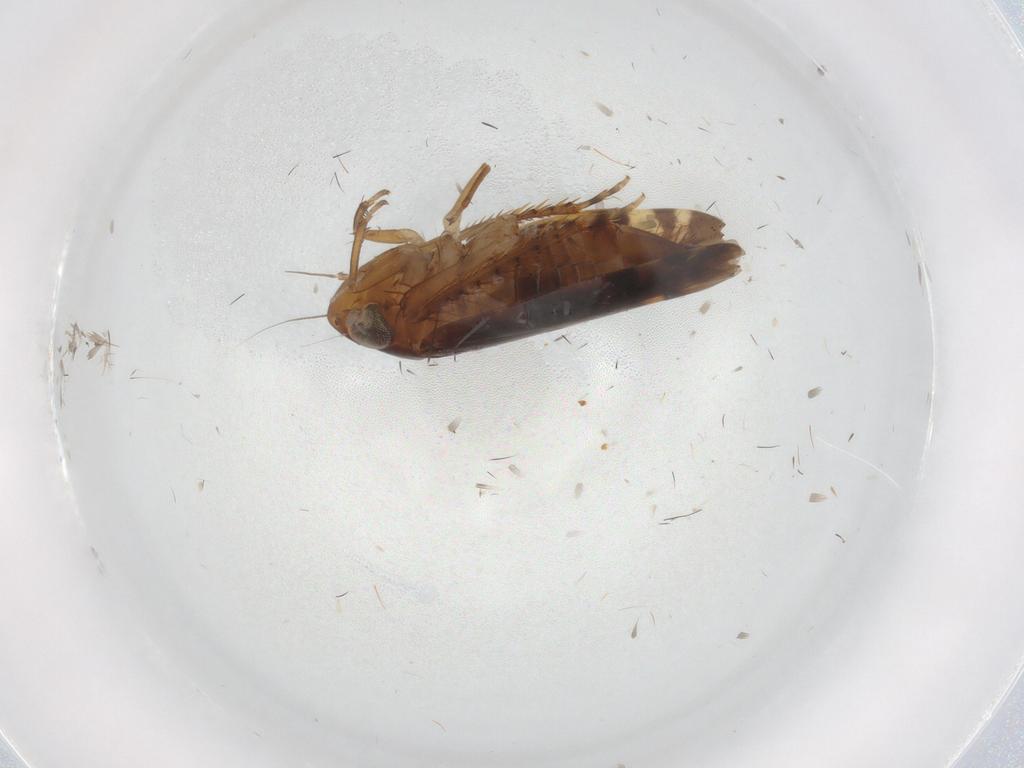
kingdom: Animalia
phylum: Arthropoda
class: Insecta
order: Hemiptera
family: Cicadellidae
